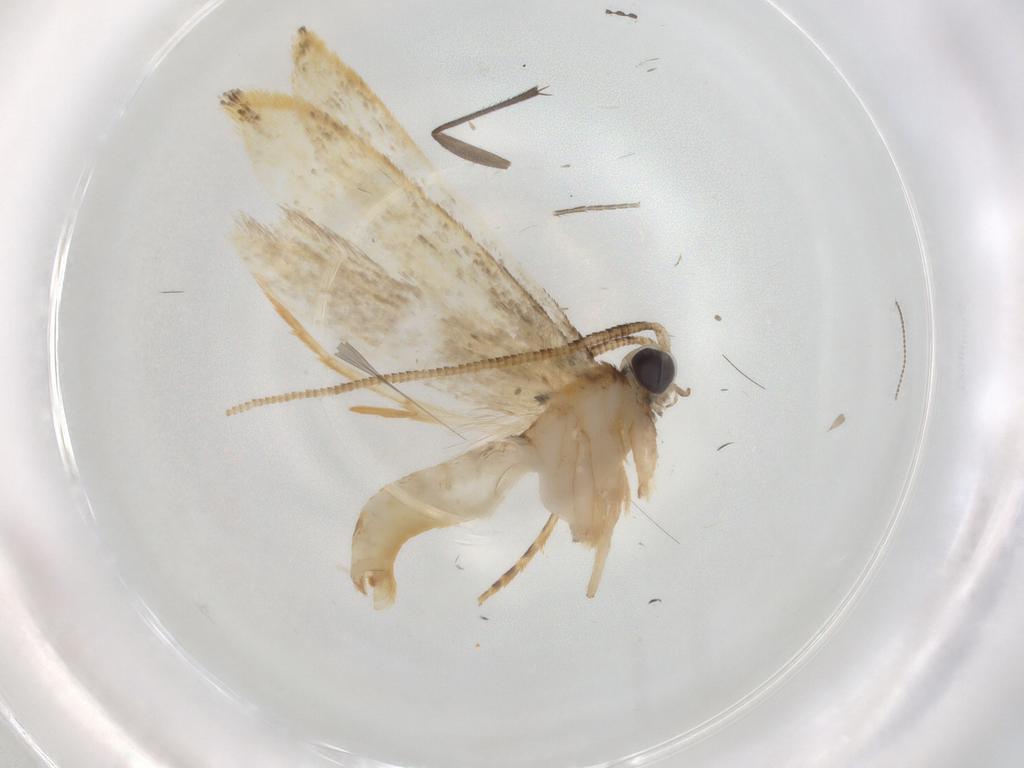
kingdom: Animalia
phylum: Arthropoda
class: Insecta
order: Lepidoptera
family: Tineidae
